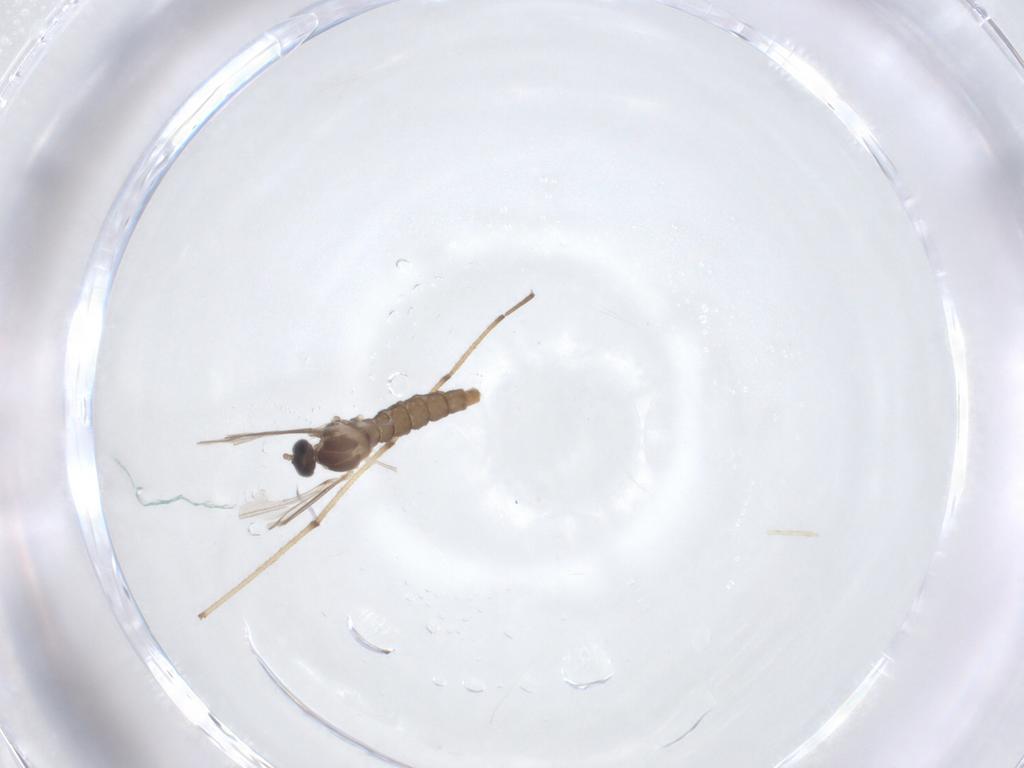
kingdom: Animalia
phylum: Arthropoda
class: Insecta
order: Diptera
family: Cecidomyiidae
